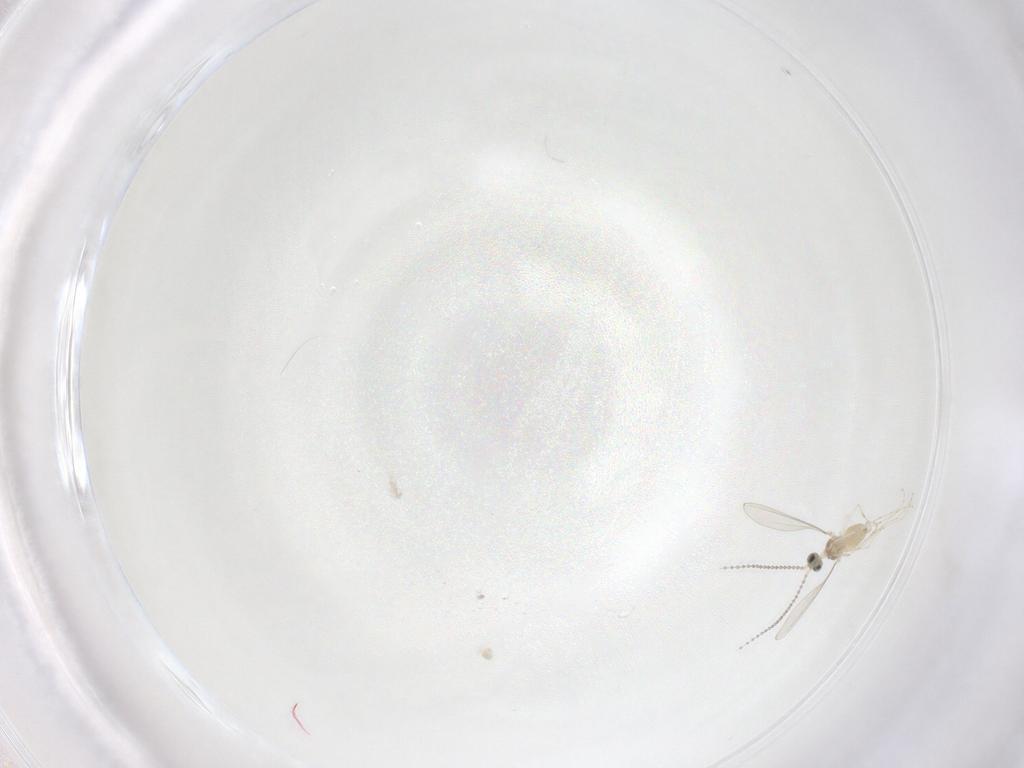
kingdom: Animalia
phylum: Arthropoda
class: Insecta
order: Diptera
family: Cecidomyiidae
